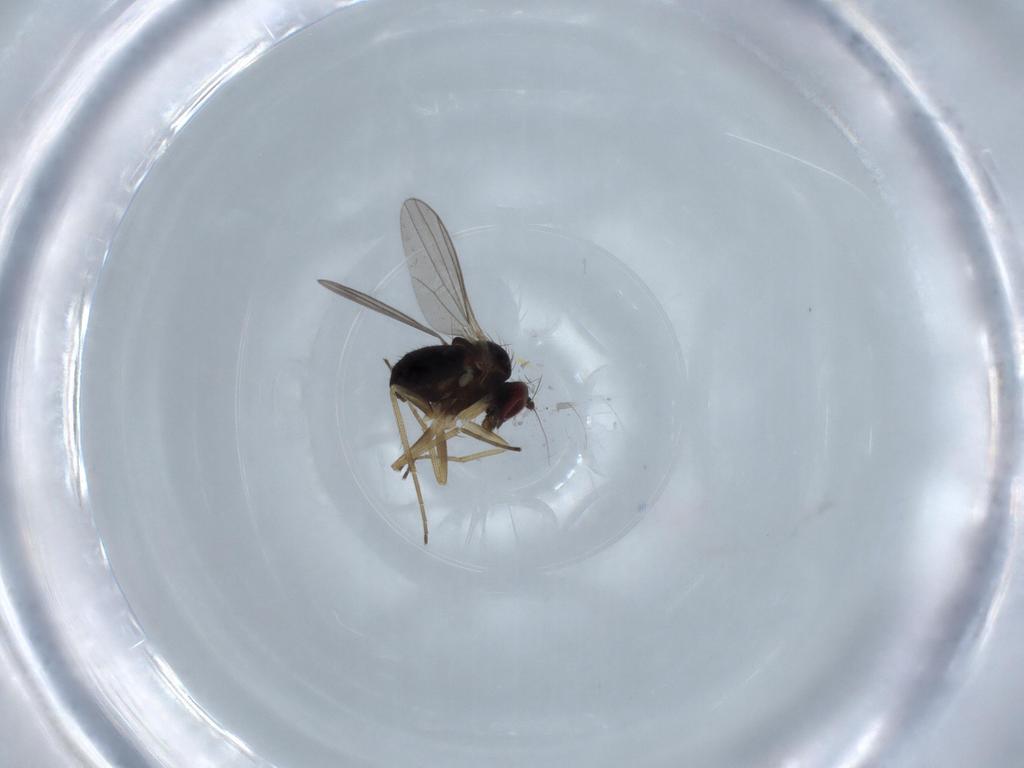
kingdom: Animalia
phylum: Arthropoda
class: Insecta
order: Diptera
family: Dolichopodidae
